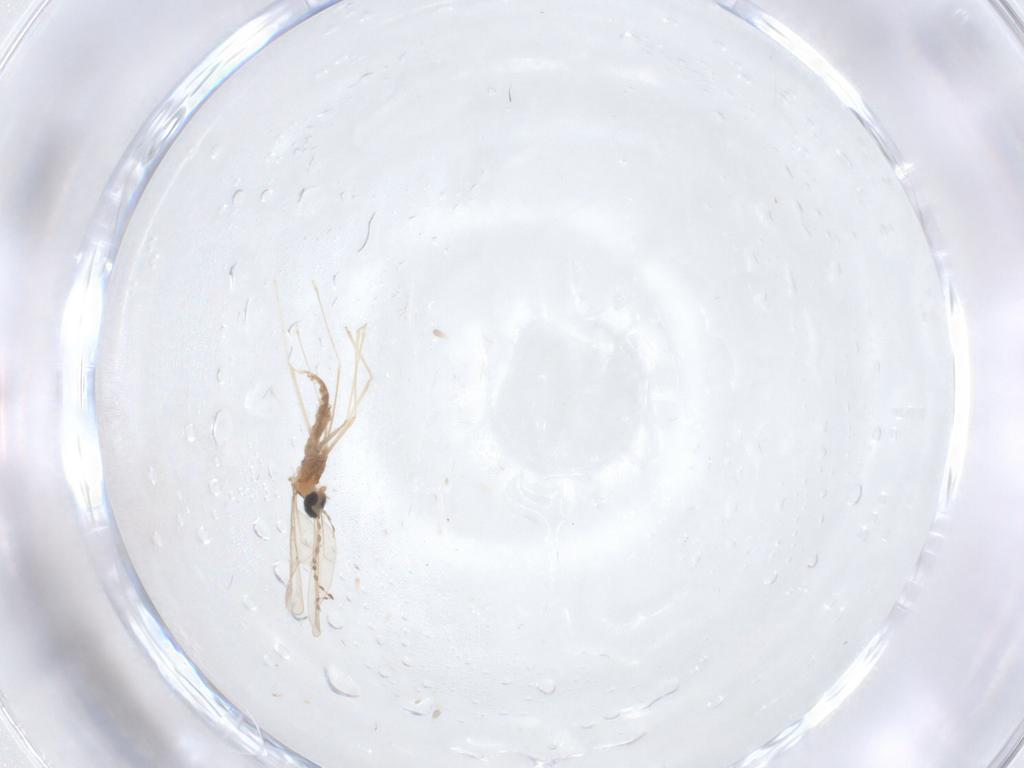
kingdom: Animalia
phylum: Arthropoda
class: Insecta
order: Diptera
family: Cecidomyiidae
